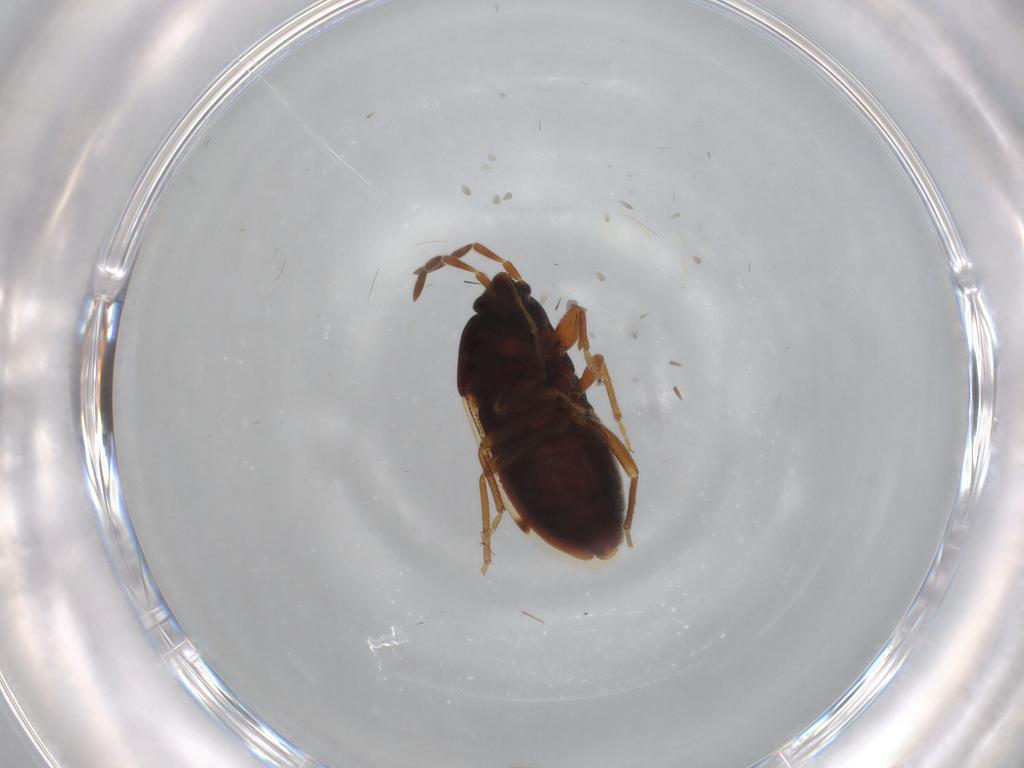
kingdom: Animalia
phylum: Arthropoda
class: Insecta
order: Hemiptera
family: Rhyparochromidae
